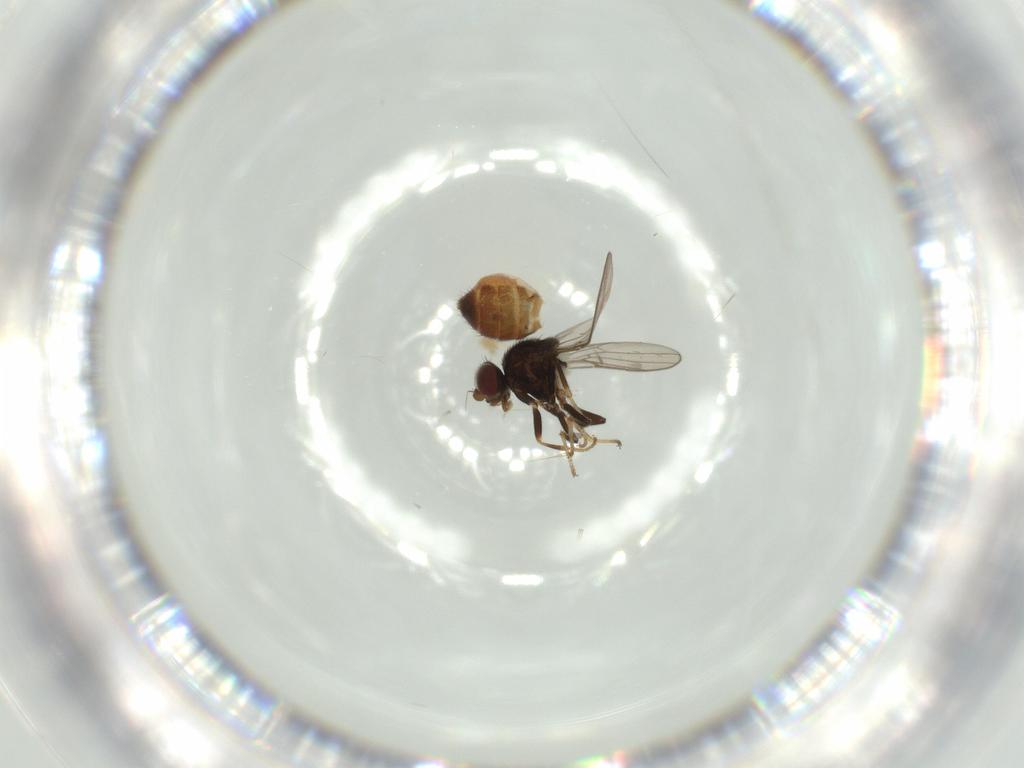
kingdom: Animalia
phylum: Arthropoda
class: Insecta
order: Diptera
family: Chloropidae
